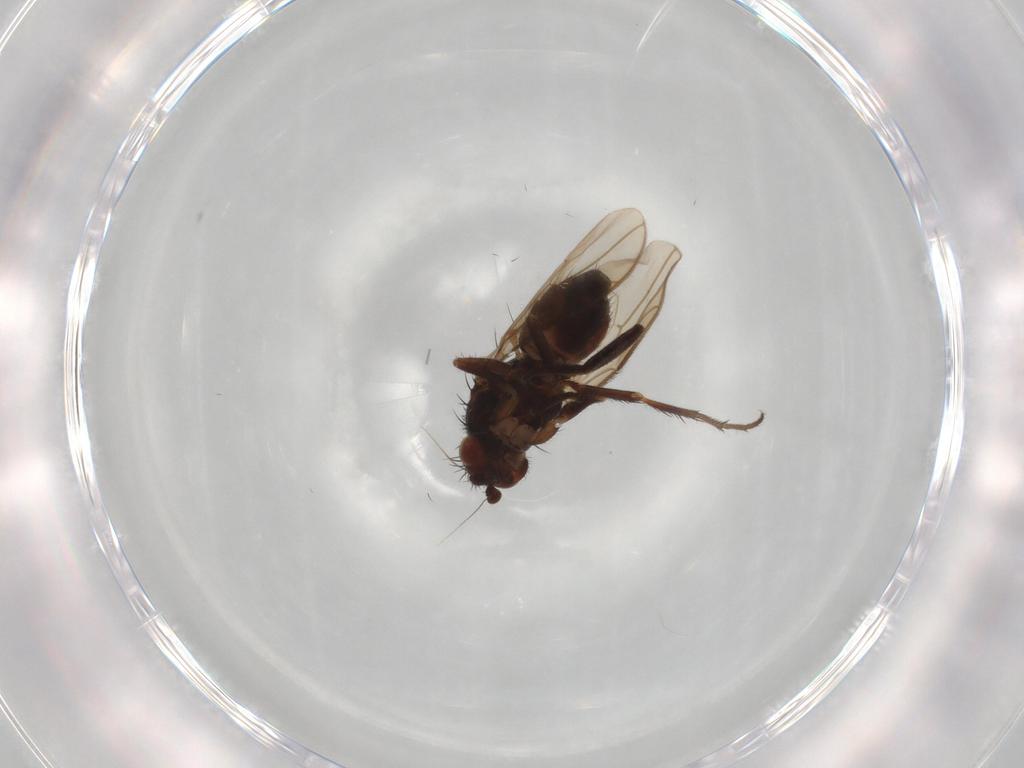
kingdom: Animalia
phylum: Arthropoda
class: Insecta
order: Diptera
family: Sphaeroceridae
